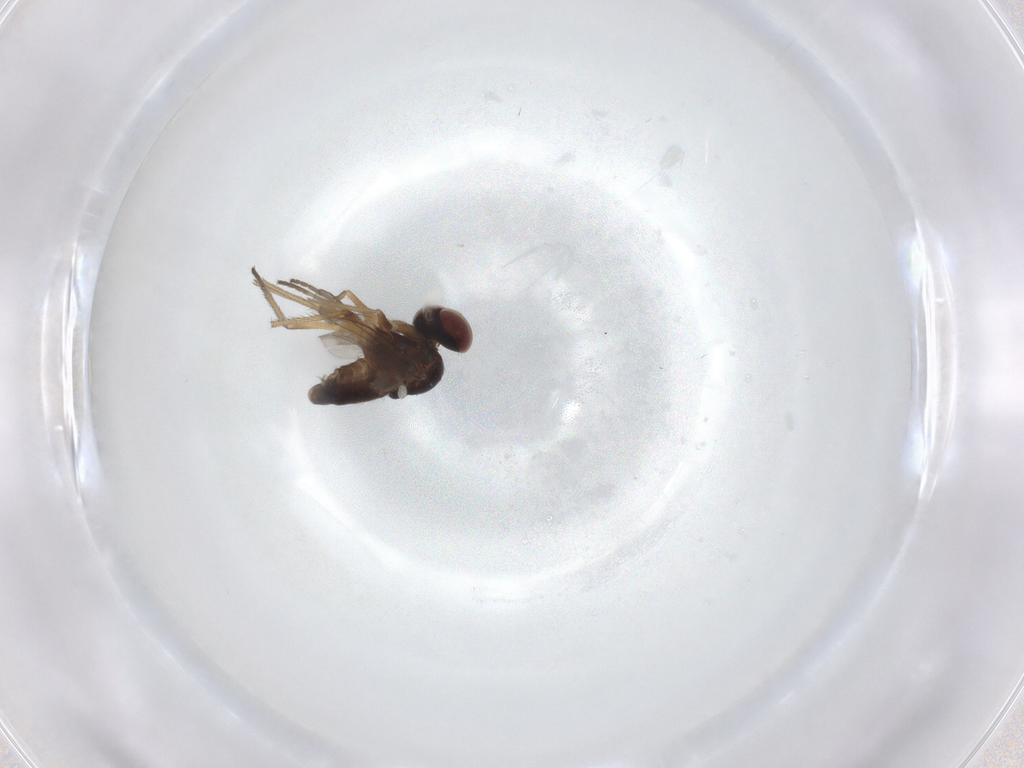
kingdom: Animalia
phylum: Arthropoda
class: Insecta
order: Diptera
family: Dolichopodidae
